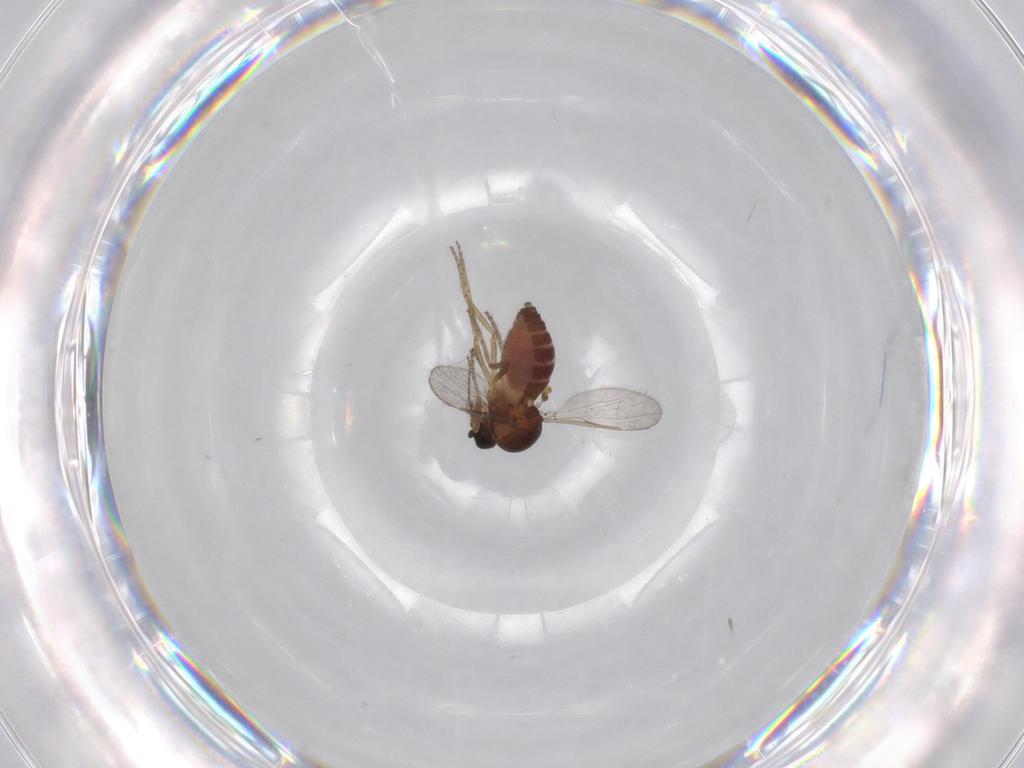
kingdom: Animalia
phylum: Arthropoda
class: Insecta
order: Diptera
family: Ceratopogonidae
